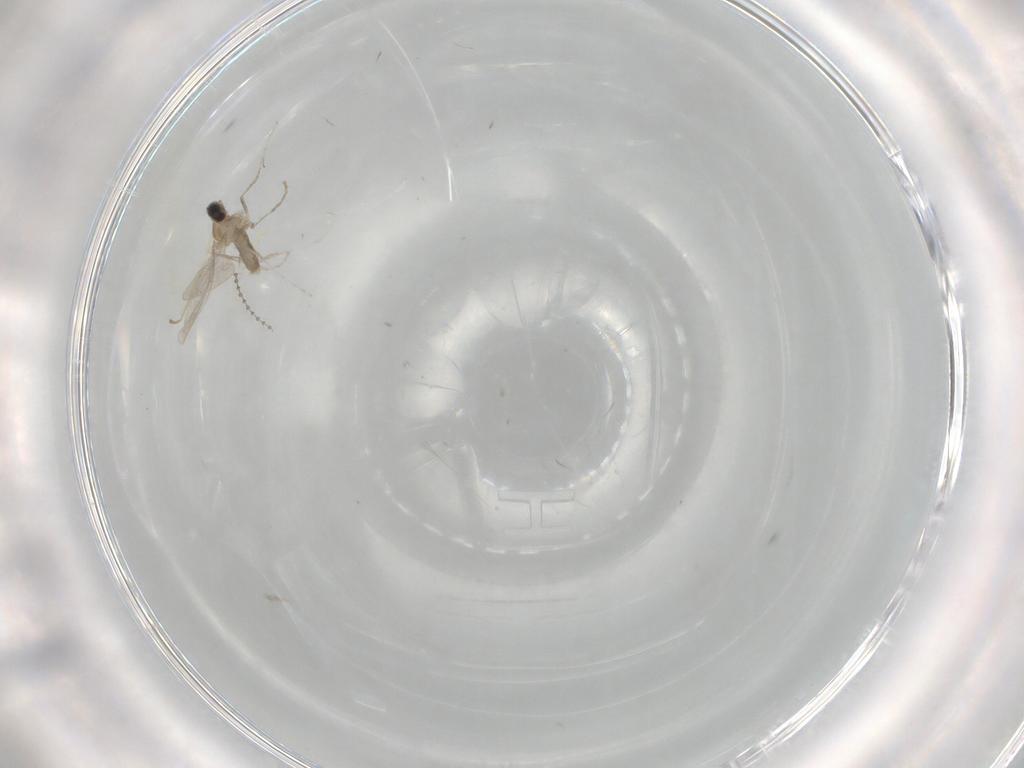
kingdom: Animalia
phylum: Arthropoda
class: Insecta
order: Diptera
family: Cecidomyiidae
